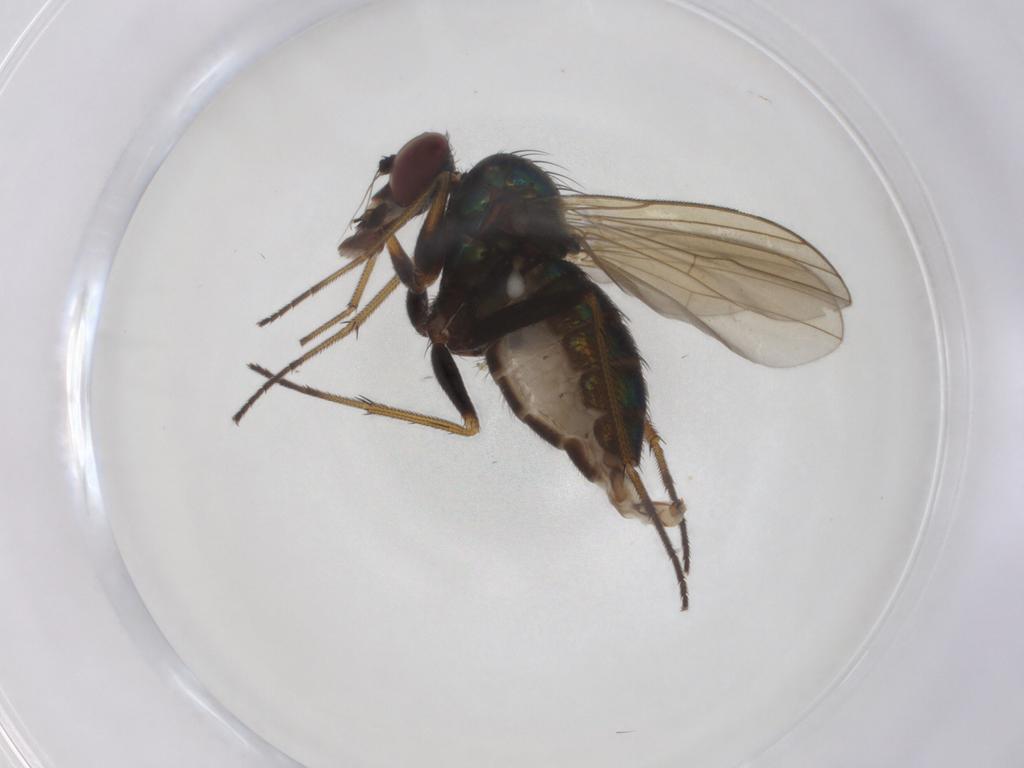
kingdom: Animalia
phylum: Arthropoda
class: Insecta
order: Diptera
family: Dolichopodidae
